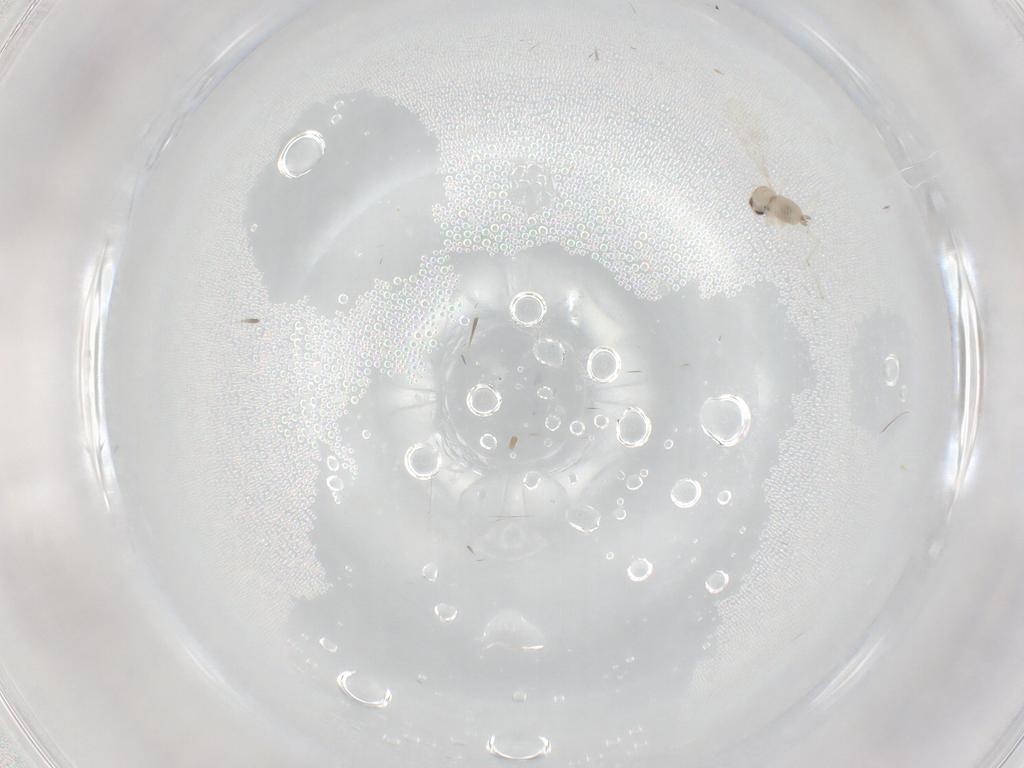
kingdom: Animalia
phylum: Arthropoda
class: Insecta
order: Diptera
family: Cecidomyiidae
